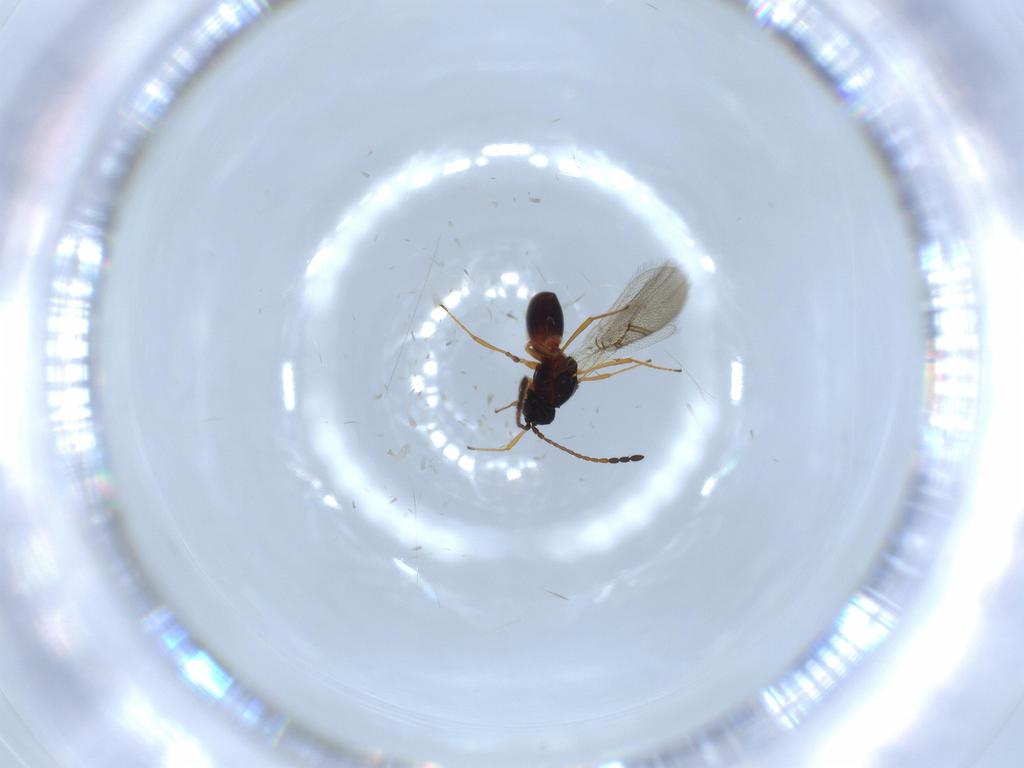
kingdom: Animalia
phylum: Arthropoda
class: Insecta
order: Hymenoptera
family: Figitidae
